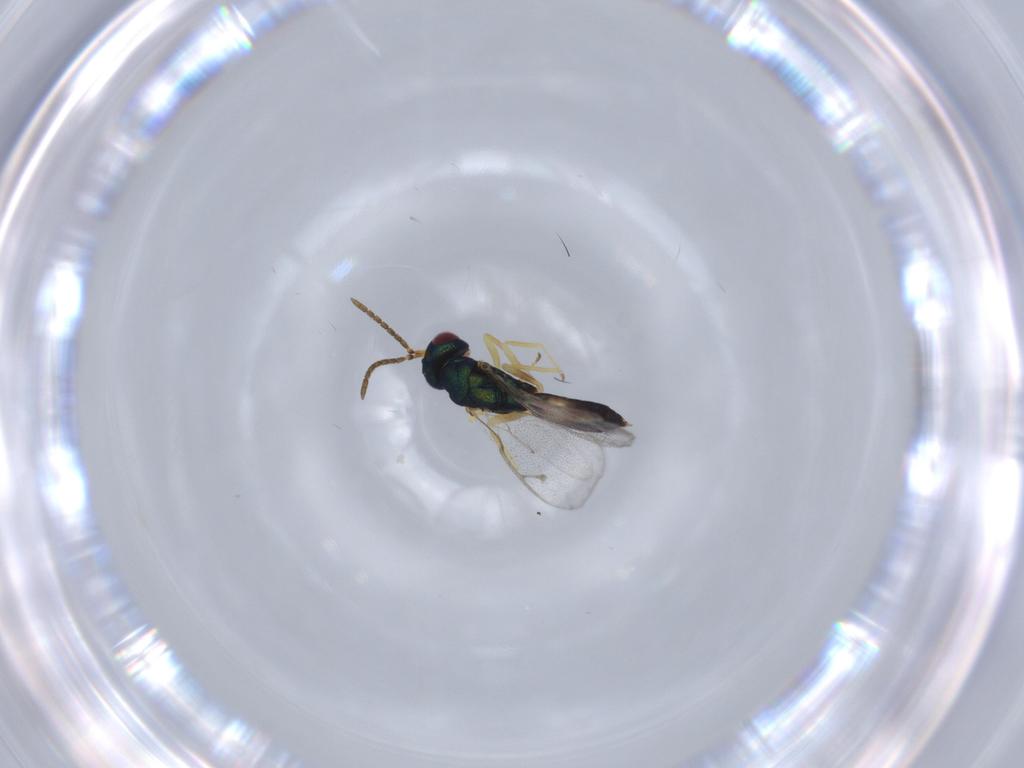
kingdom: Animalia
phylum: Arthropoda
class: Insecta
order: Hymenoptera
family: Pteromalidae
